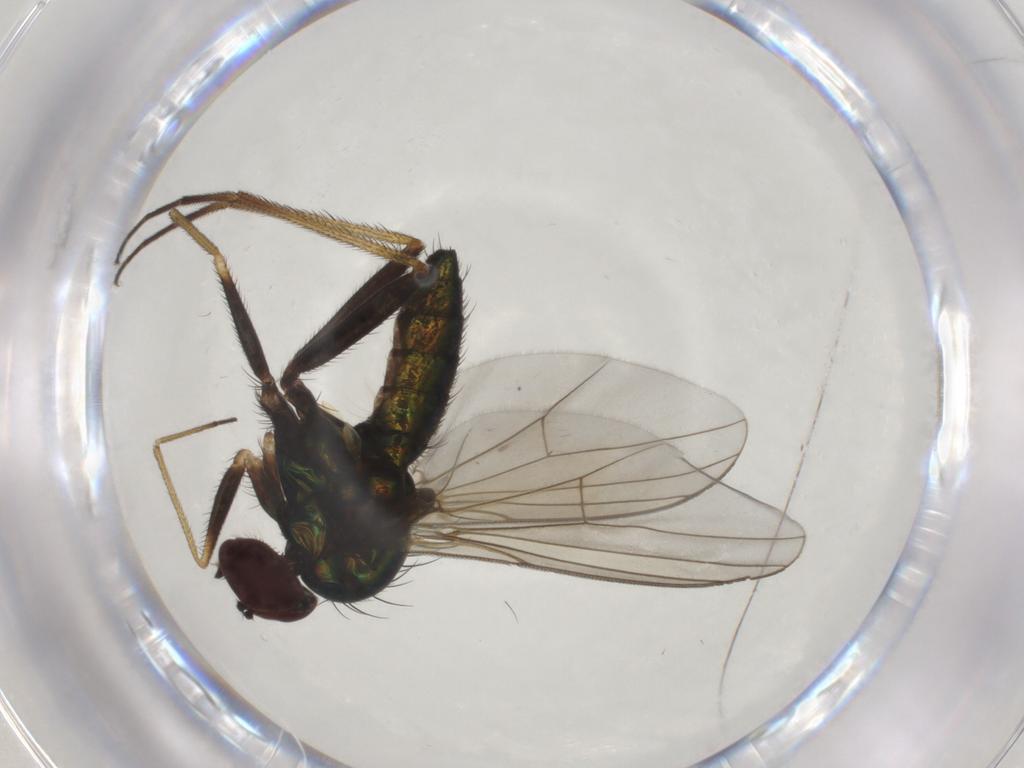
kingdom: Animalia
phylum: Arthropoda
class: Insecta
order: Diptera
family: Dolichopodidae
